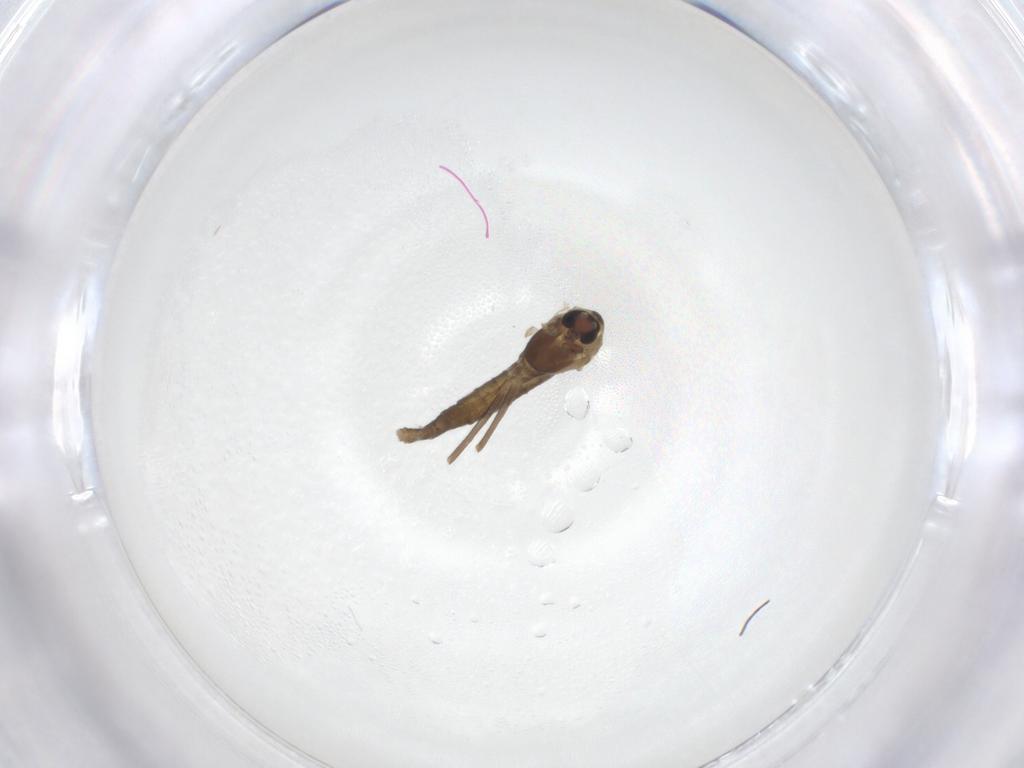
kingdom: Animalia
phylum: Arthropoda
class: Insecta
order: Diptera
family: Chironomidae
